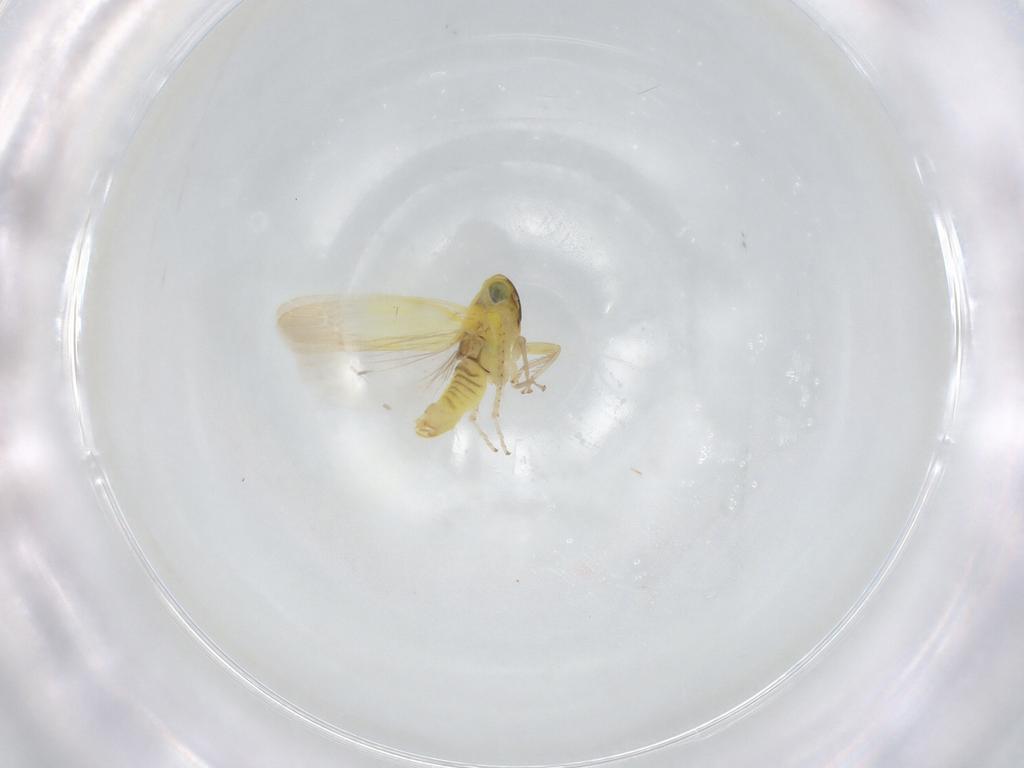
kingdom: Animalia
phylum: Arthropoda
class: Insecta
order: Hemiptera
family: Cicadellidae
